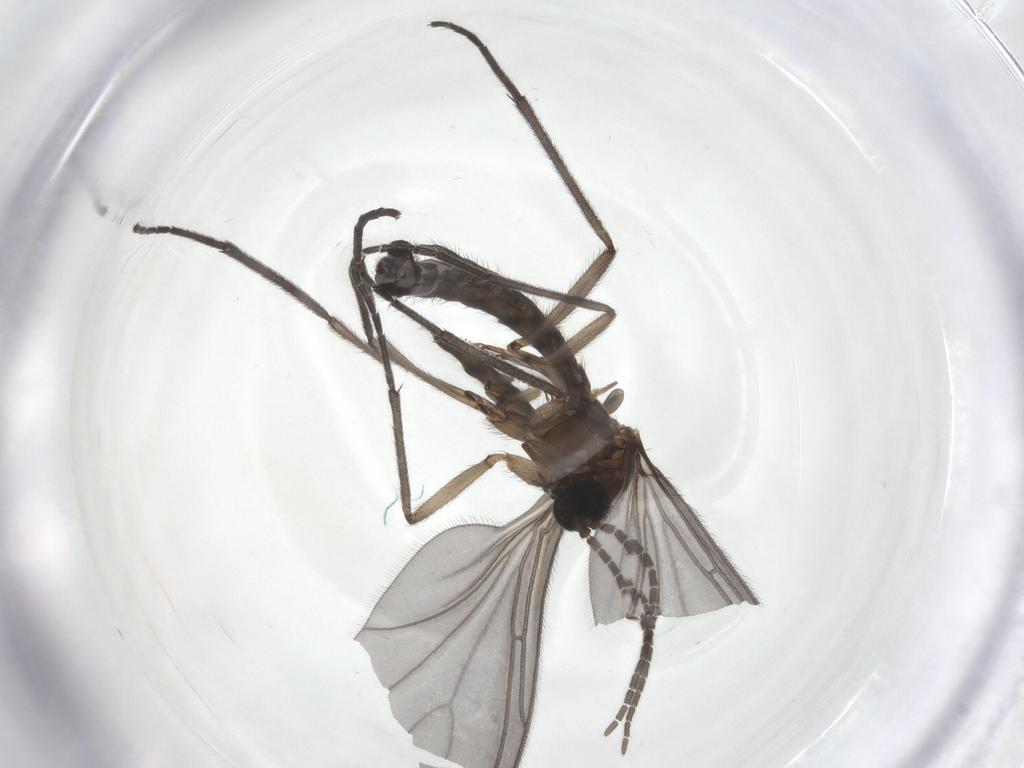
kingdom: Animalia
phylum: Arthropoda
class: Insecta
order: Diptera
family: Sciaridae
